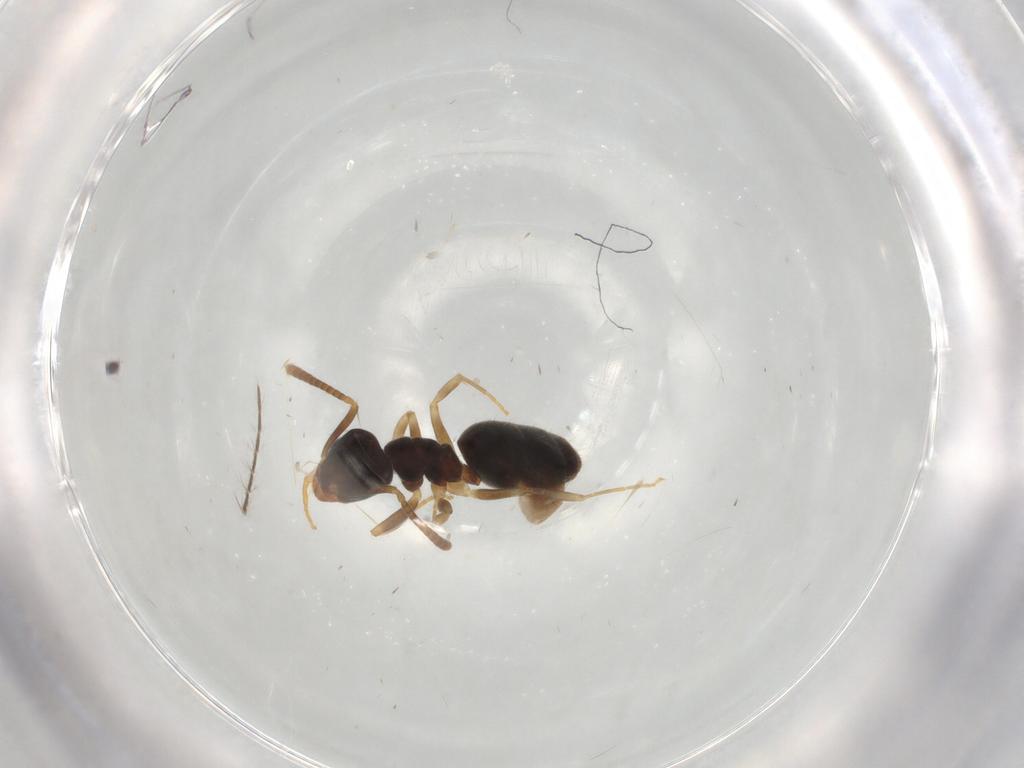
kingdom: Animalia
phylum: Arthropoda
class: Insecta
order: Hymenoptera
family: Formicidae
